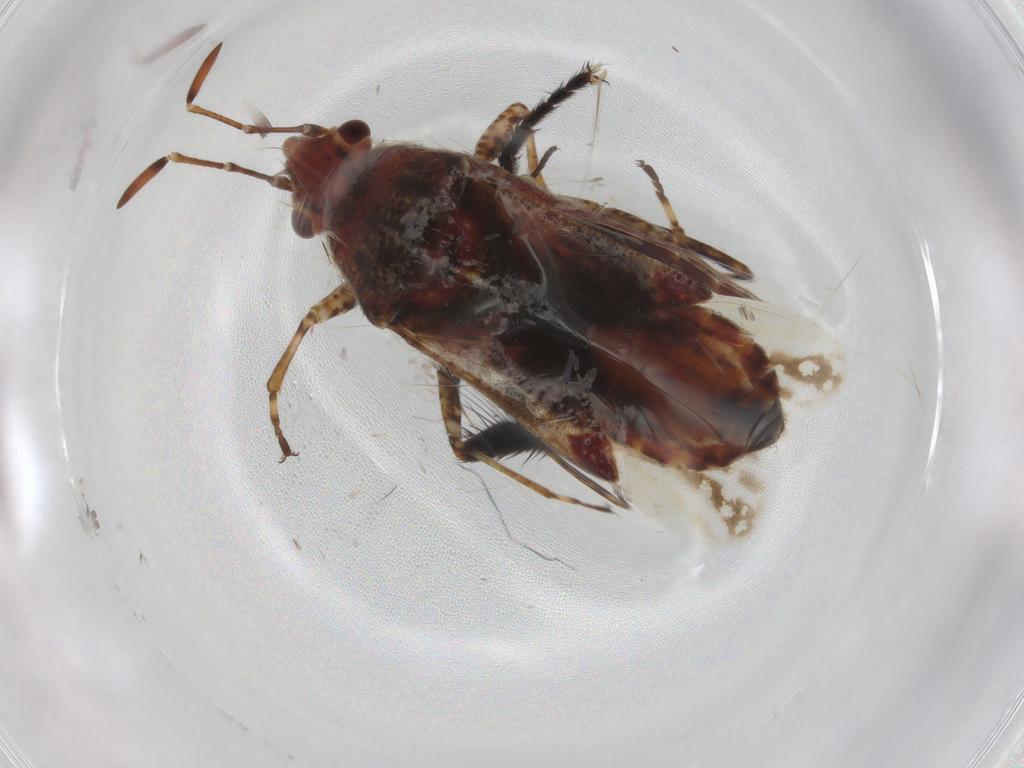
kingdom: Animalia
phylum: Arthropoda
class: Insecta
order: Hemiptera
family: Lygaeidae
